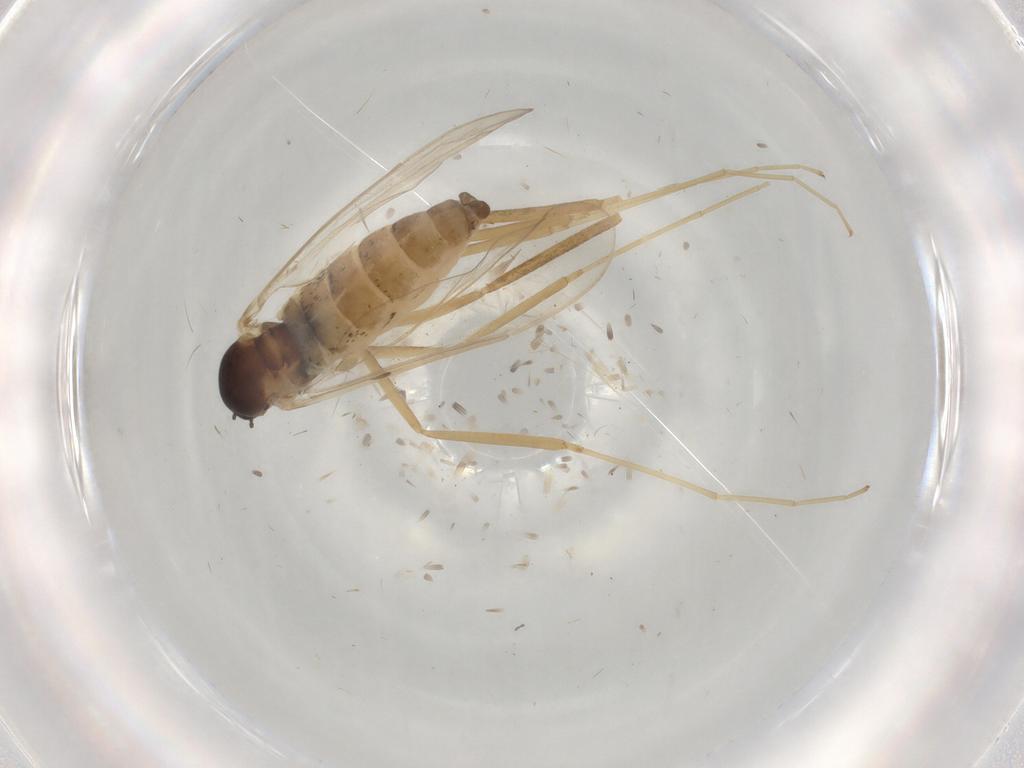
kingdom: Animalia
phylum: Arthropoda
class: Insecta
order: Diptera
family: Cecidomyiidae
